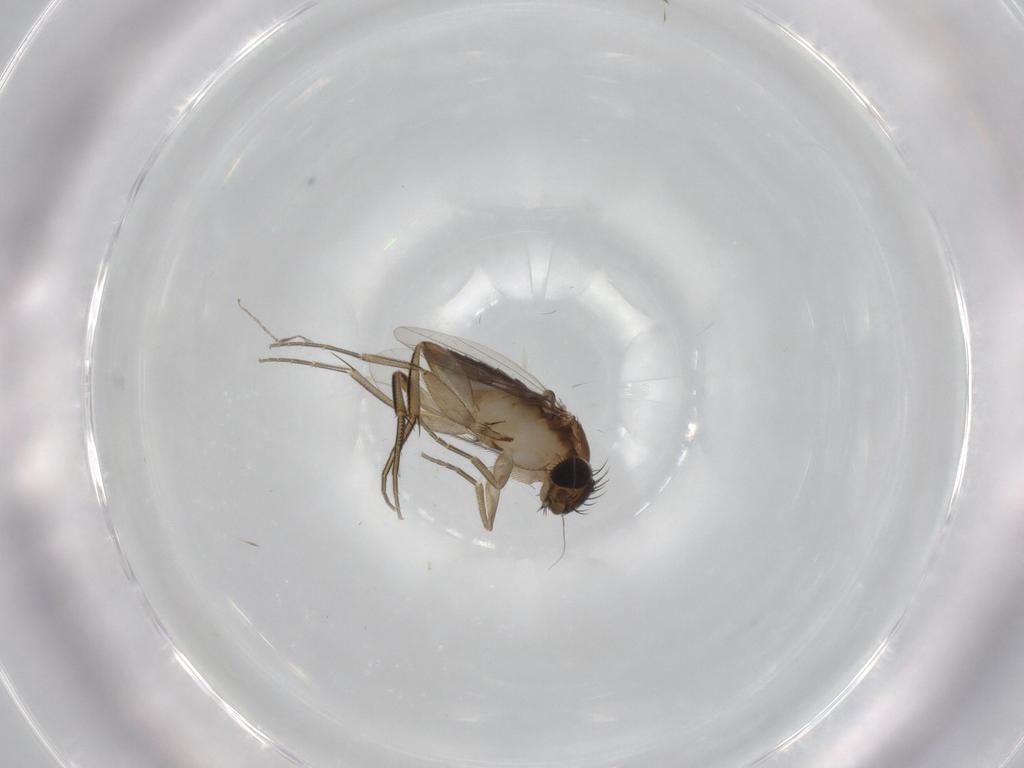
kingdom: Animalia
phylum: Arthropoda
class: Insecta
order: Diptera
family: Phoridae
